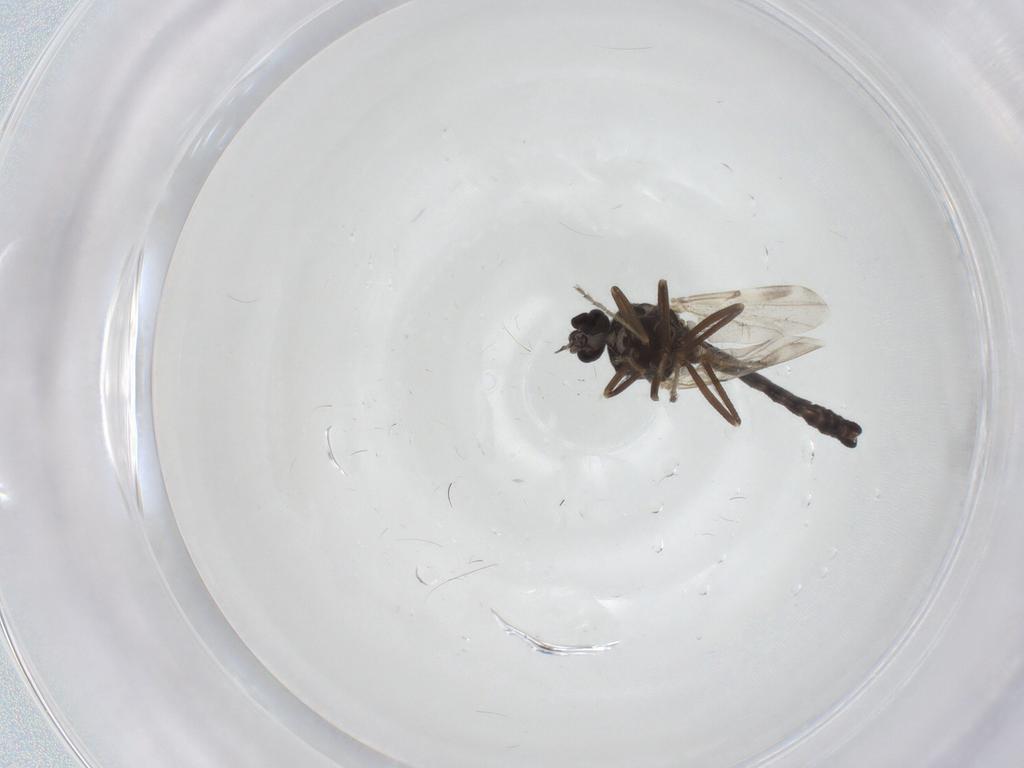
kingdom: Animalia
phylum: Arthropoda
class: Insecta
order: Diptera
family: Ceratopogonidae
